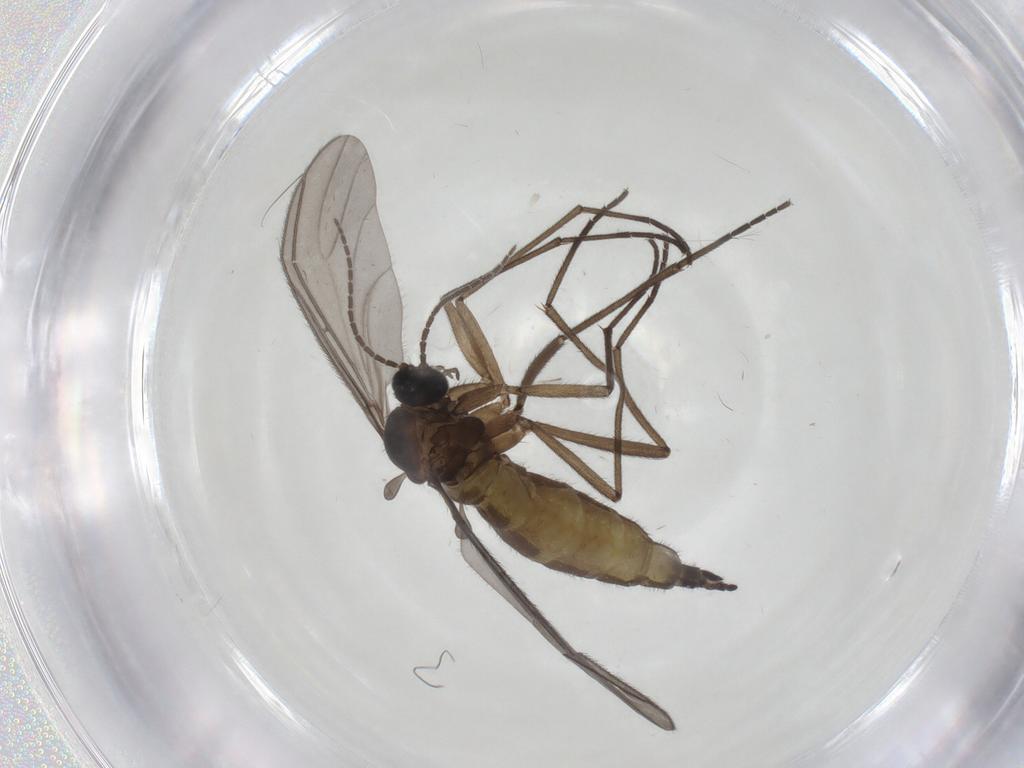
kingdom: Animalia
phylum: Arthropoda
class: Insecta
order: Diptera
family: Sciaridae
